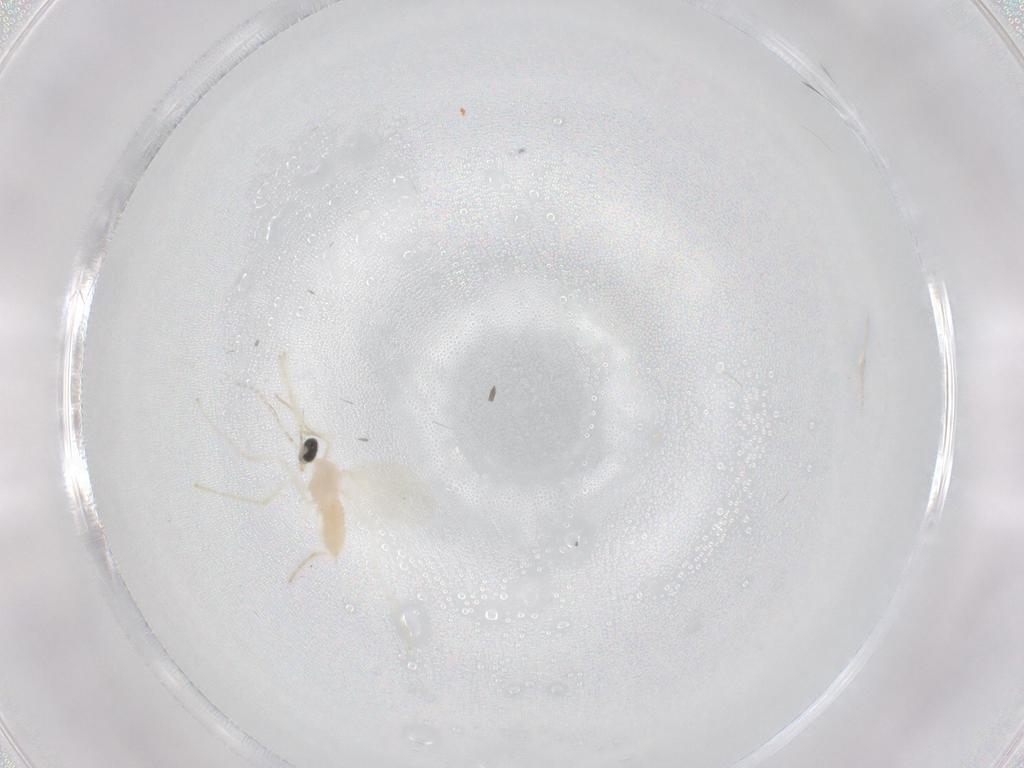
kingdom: Animalia
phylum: Arthropoda
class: Insecta
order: Diptera
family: Cecidomyiidae
